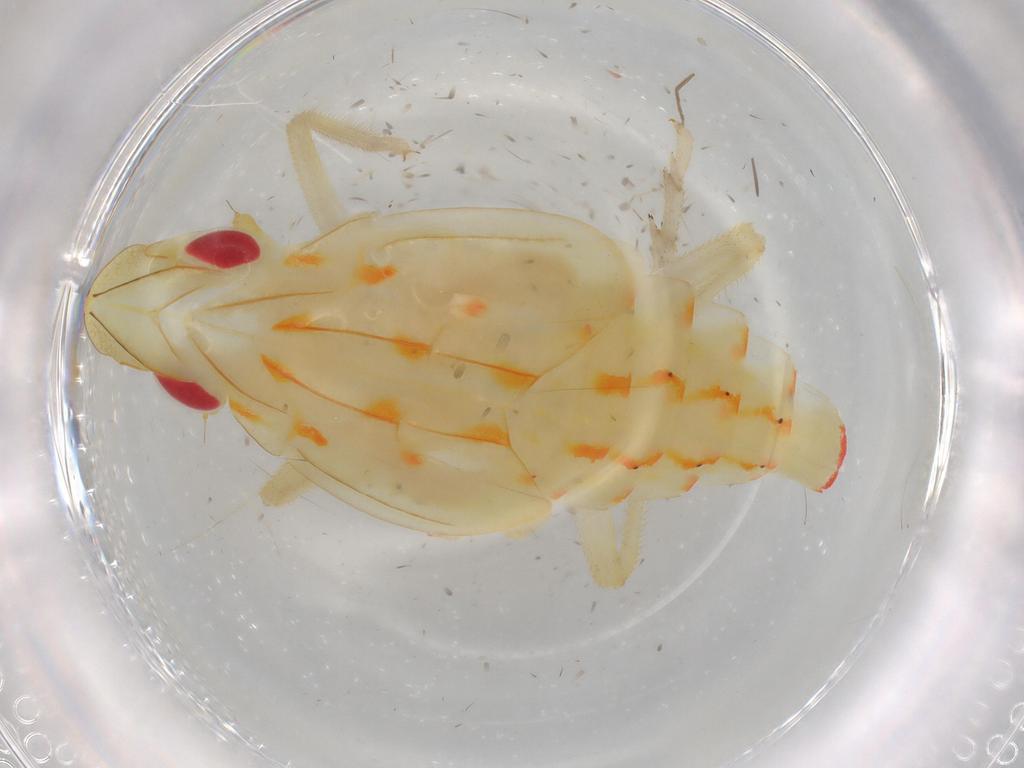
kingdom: Animalia
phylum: Arthropoda
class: Insecta
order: Hemiptera
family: Tropiduchidae
